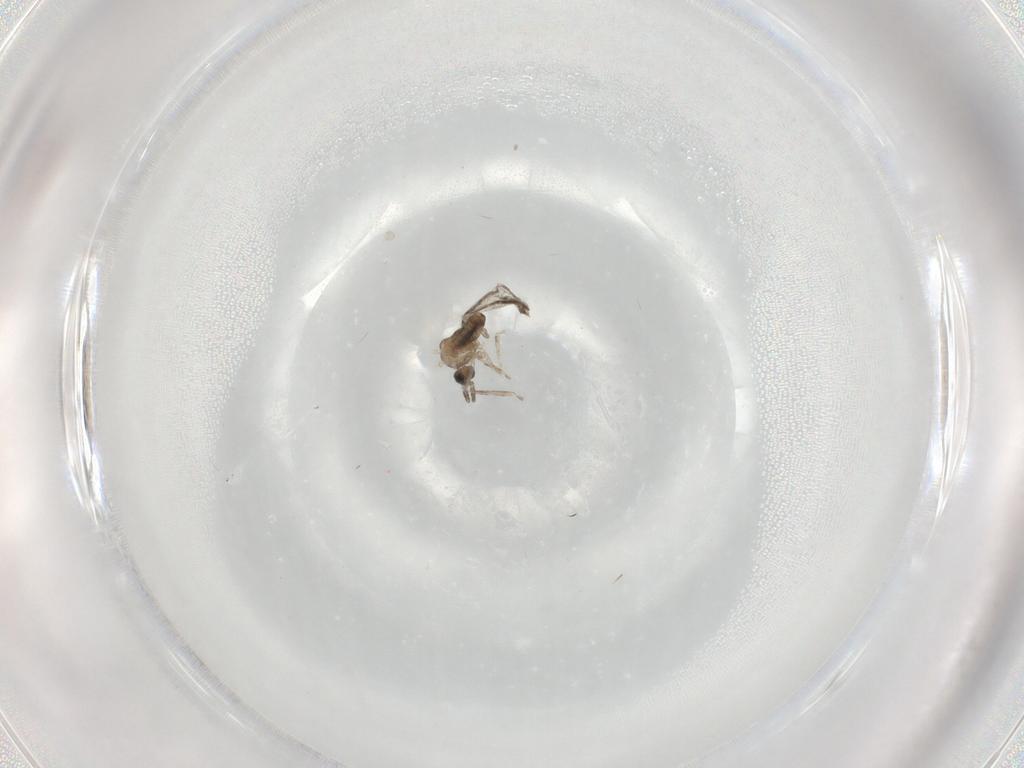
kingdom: Animalia
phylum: Arthropoda
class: Insecta
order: Diptera
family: Cecidomyiidae
